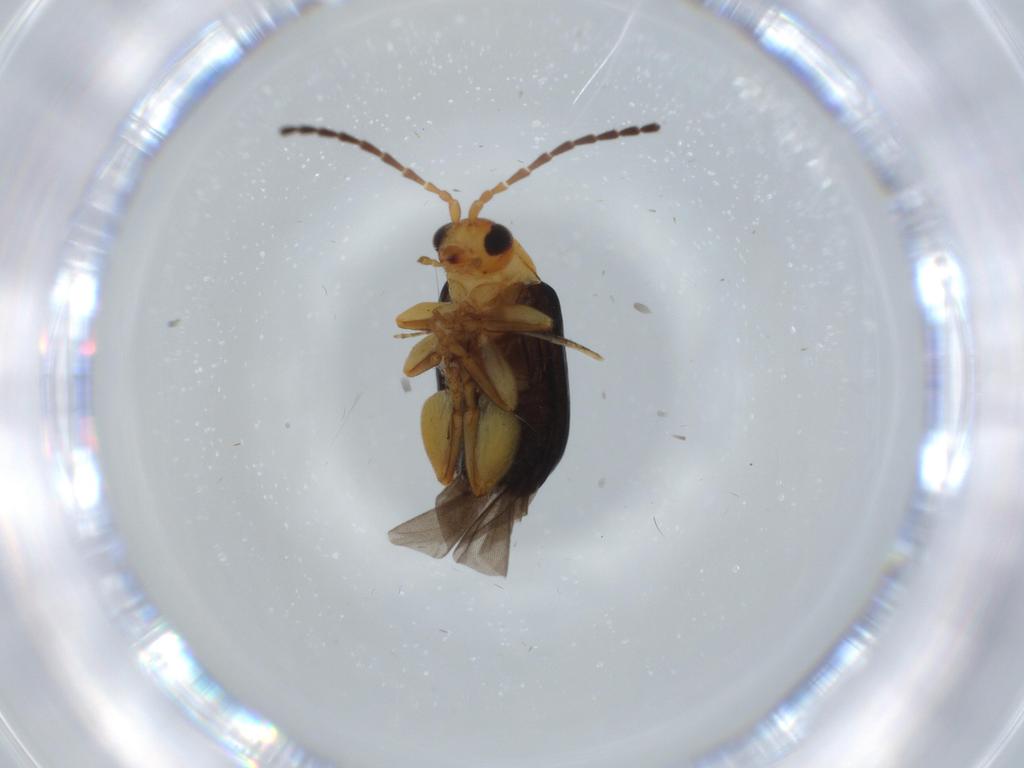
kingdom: Animalia
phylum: Arthropoda
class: Insecta
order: Coleoptera
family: Chrysomelidae
